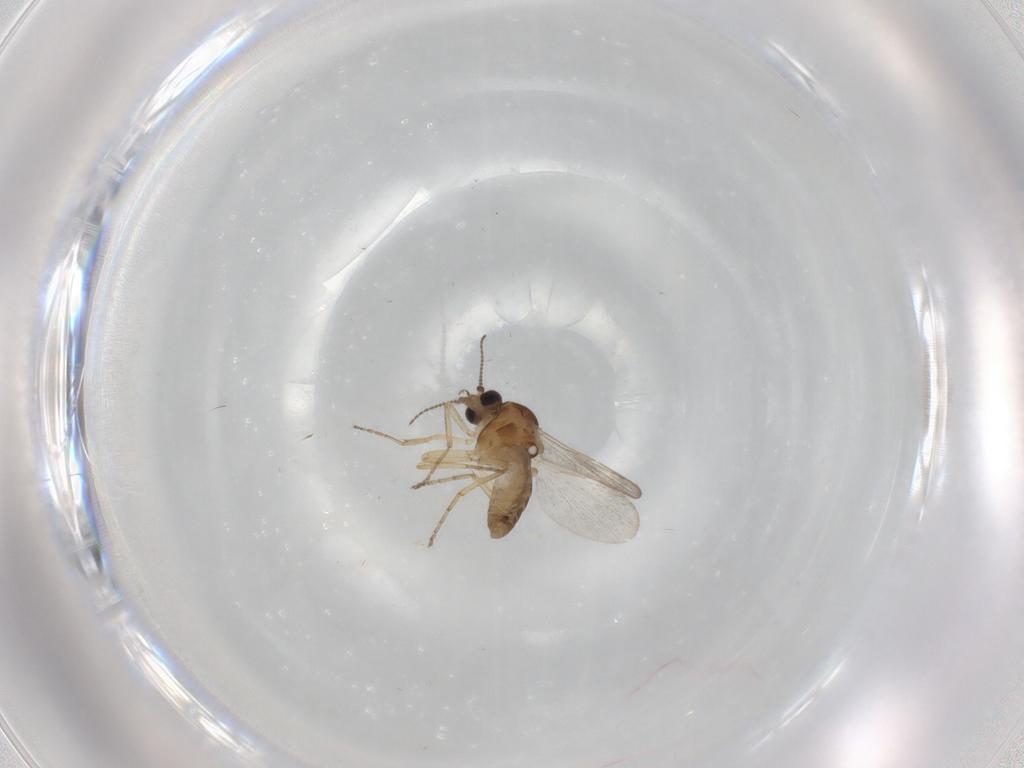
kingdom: Animalia
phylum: Arthropoda
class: Insecta
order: Diptera
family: Ceratopogonidae
